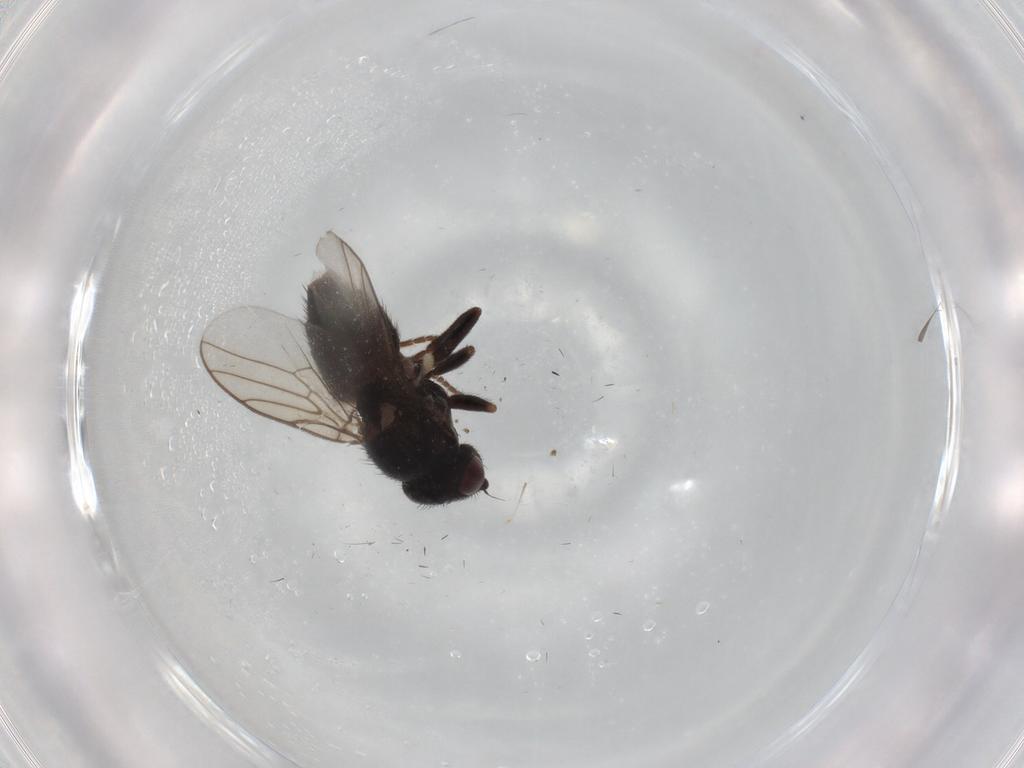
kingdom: Animalia
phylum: Arthropoda
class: Insecta
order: Diptera
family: Chloropidae
